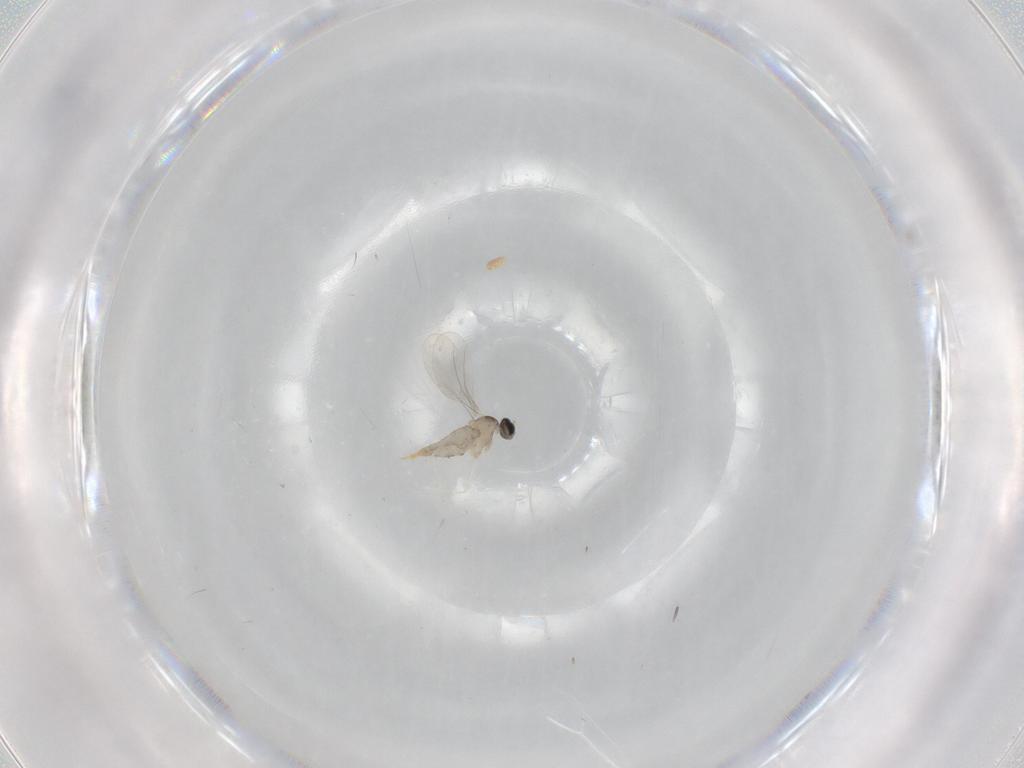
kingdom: Animalia
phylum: Arthropoda
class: Insecta
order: Diptera
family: Cecidomyiidae
